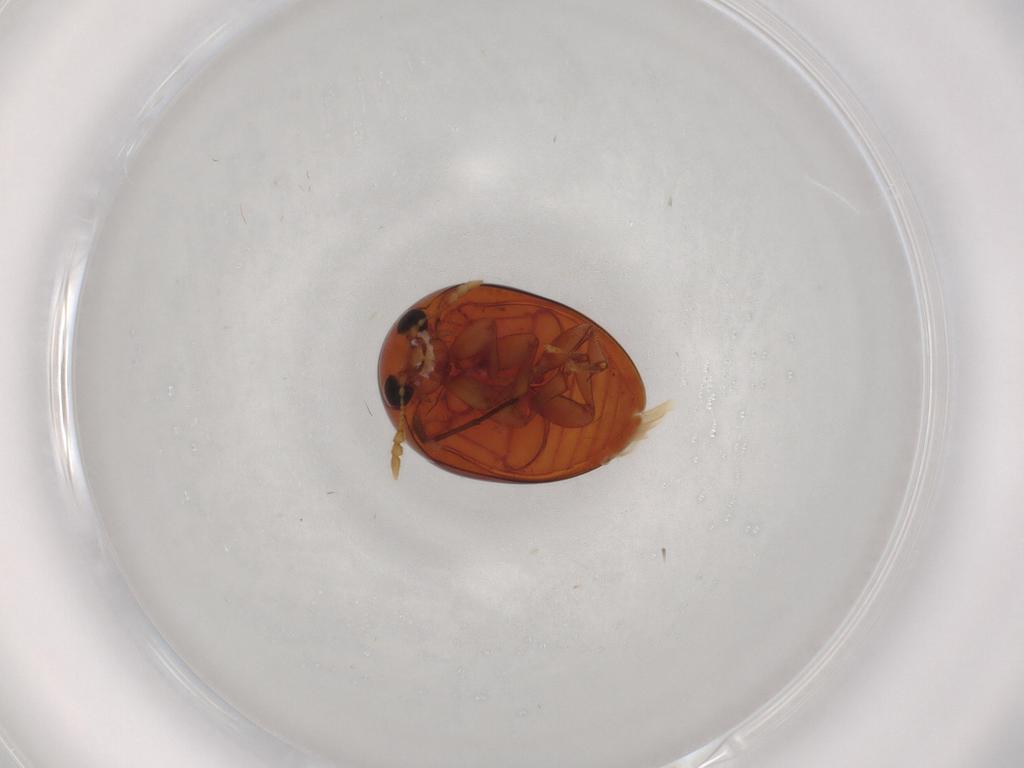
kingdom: Animalia
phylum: Arthropoda
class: Insecta
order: Coleoptera
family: Phalacridae
